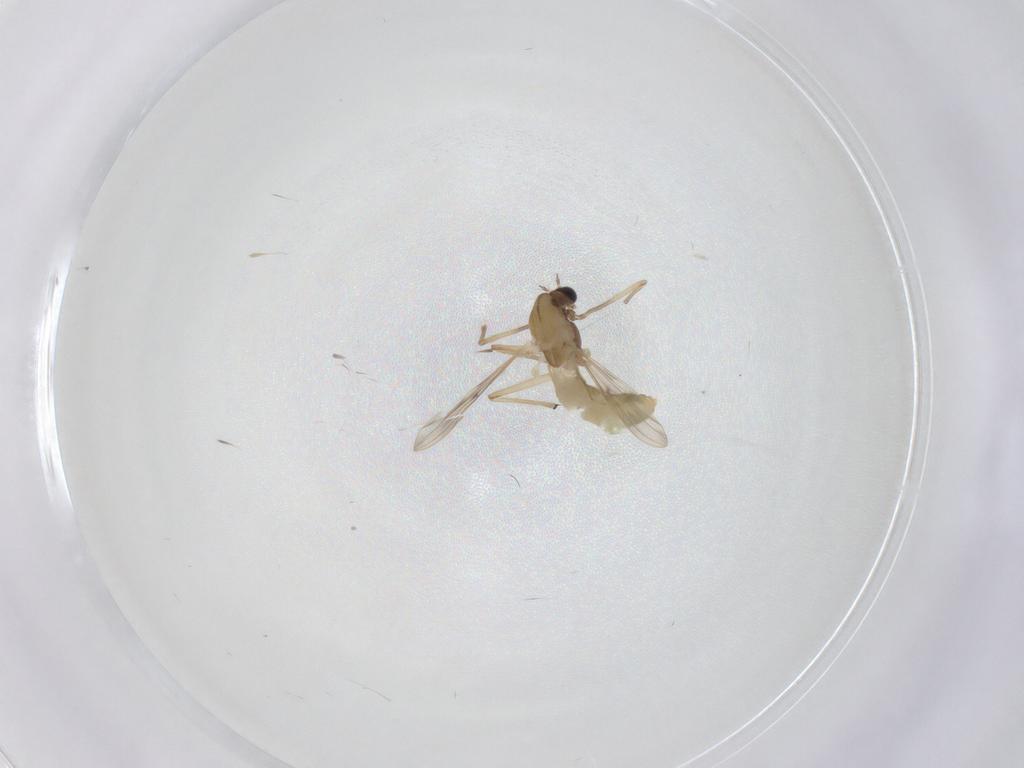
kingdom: Animalia
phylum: Arthropoda
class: Insecta
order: Diptera
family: Chironomidae
